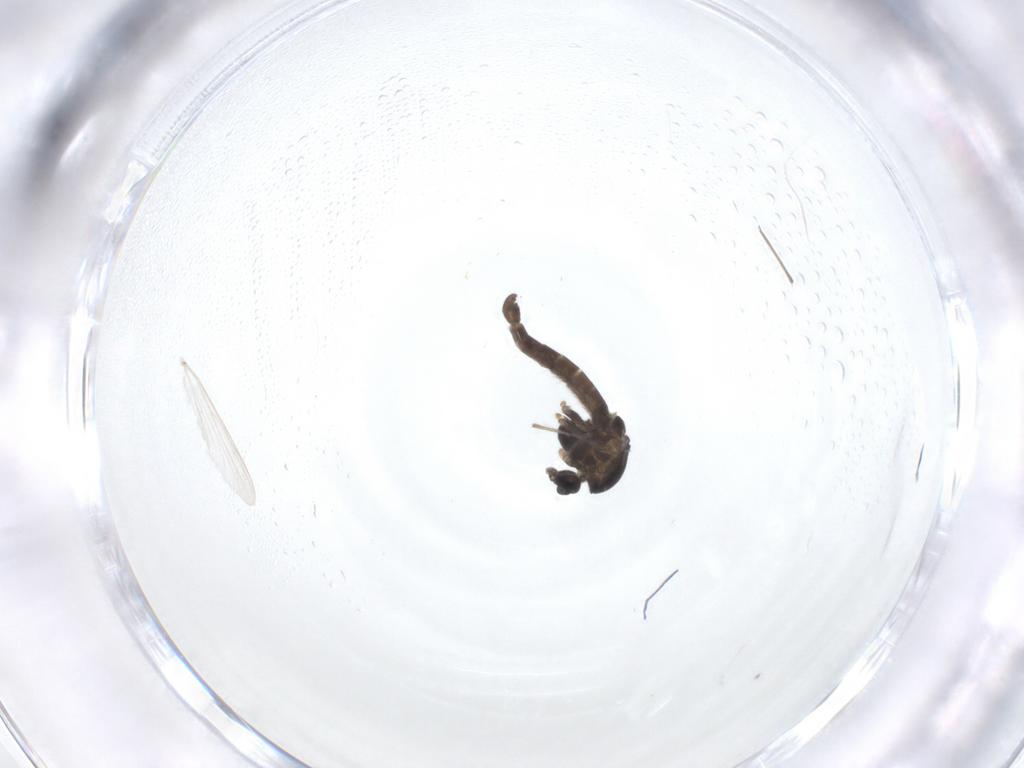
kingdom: Animalia
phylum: Arthropoda
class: Insecta
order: Diptera
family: Chironomidae
